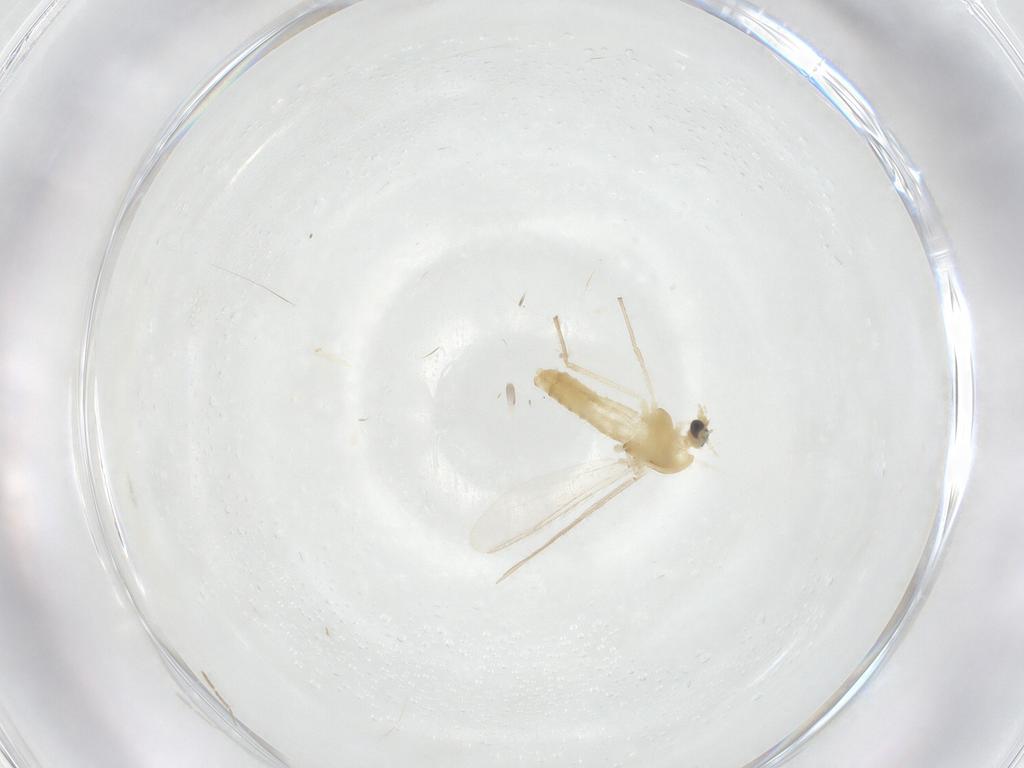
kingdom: Animalia
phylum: Arthropoda
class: Insecta
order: Diptera
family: Chironomidae
